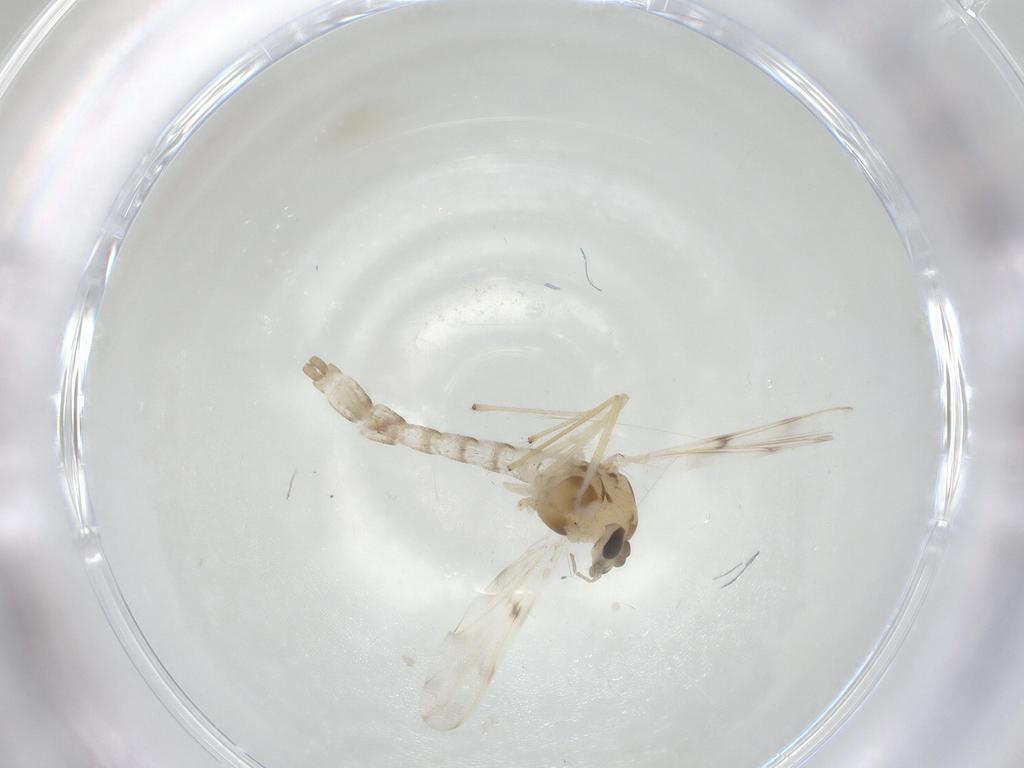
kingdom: Animalia
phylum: Arthropoda
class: Insecta
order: Diptera
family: Chironomidae
